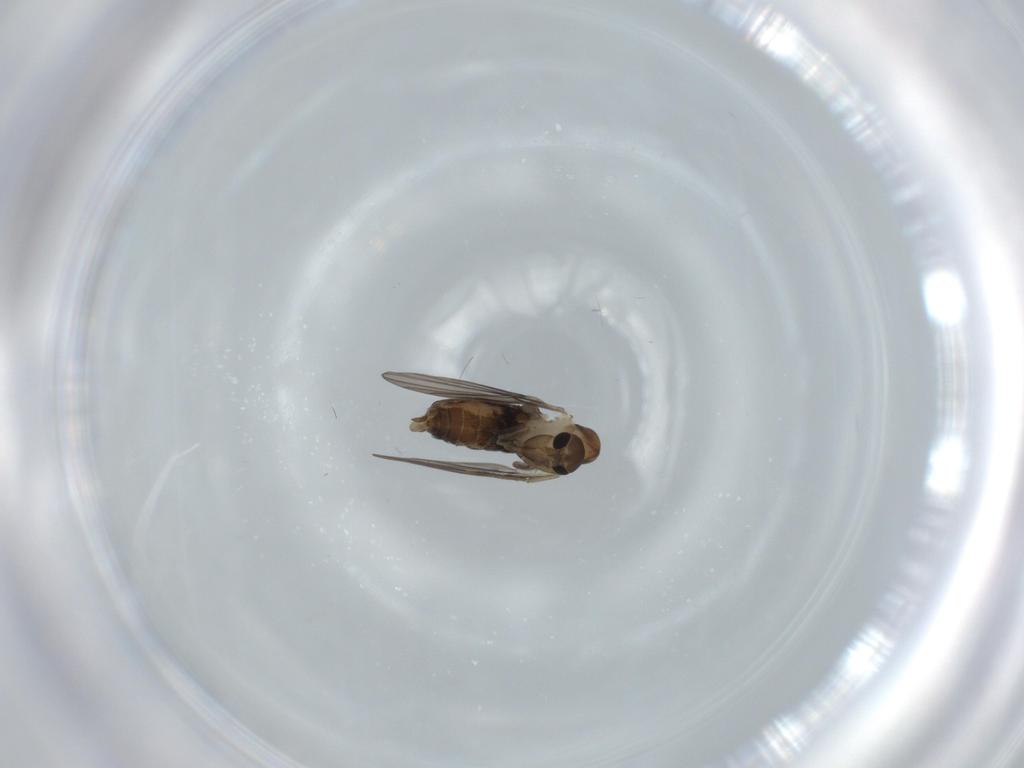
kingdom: Animalia
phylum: Arthropoda
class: Insecta
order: Diptera
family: Psychodidae
